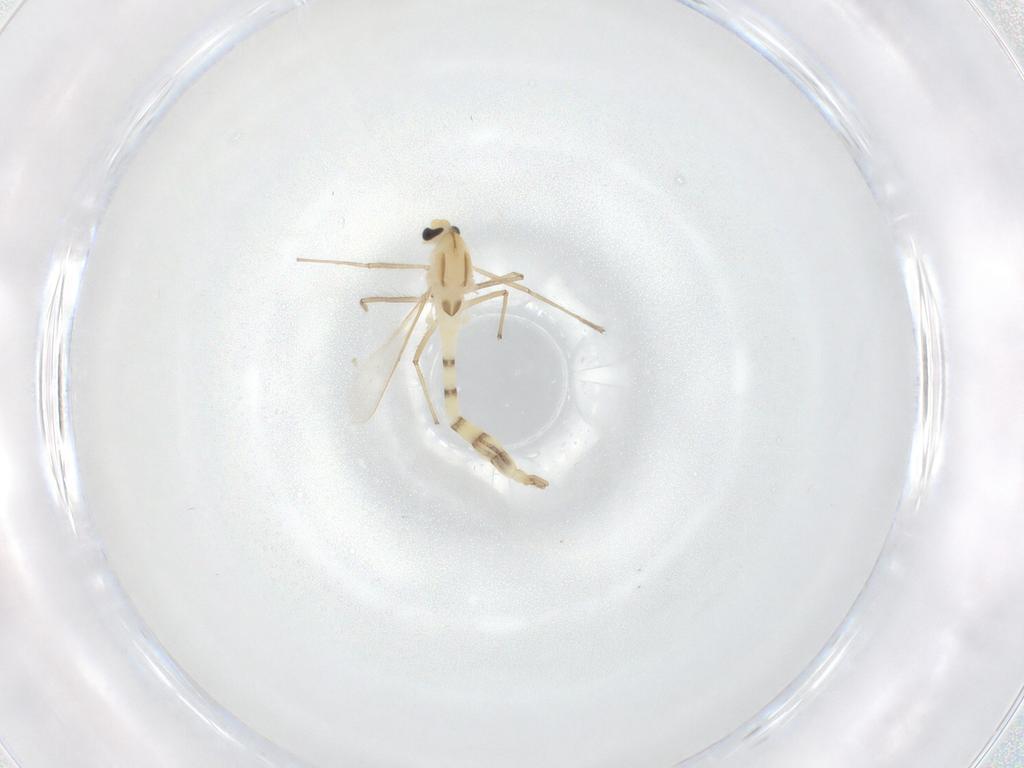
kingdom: Animalia
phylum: Arthropoda
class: Insecta
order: Diptera
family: Chironomidae
